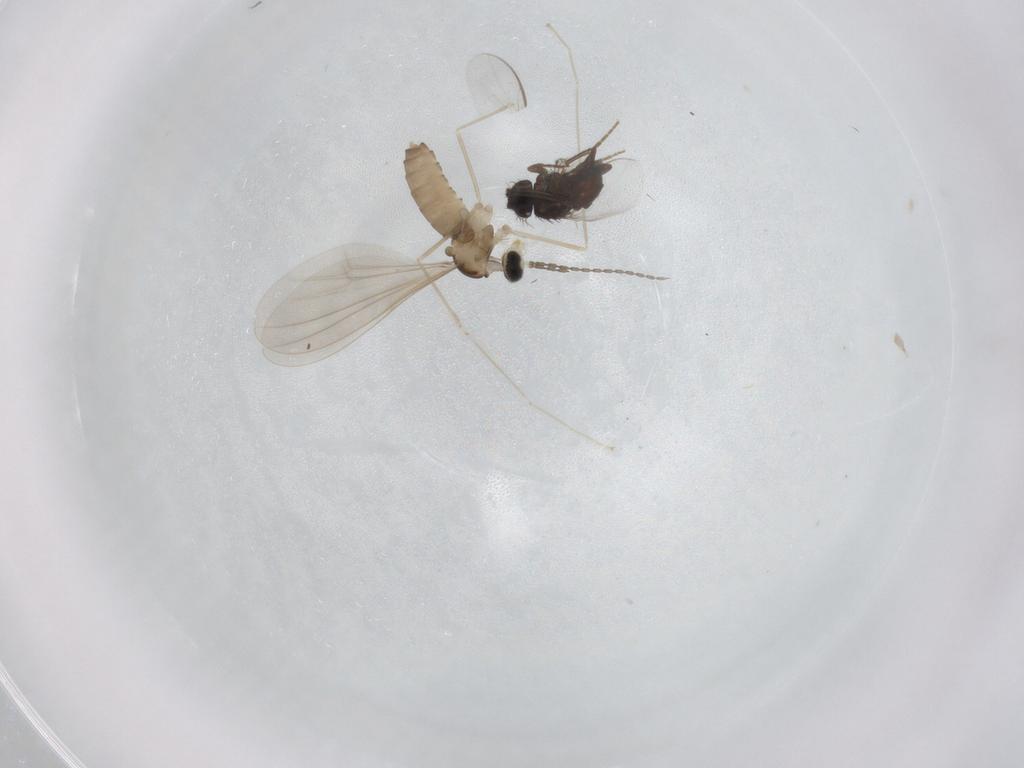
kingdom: Animalia
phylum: Arthropoda
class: Insecta
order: Diptera
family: Cecidomyiidae
